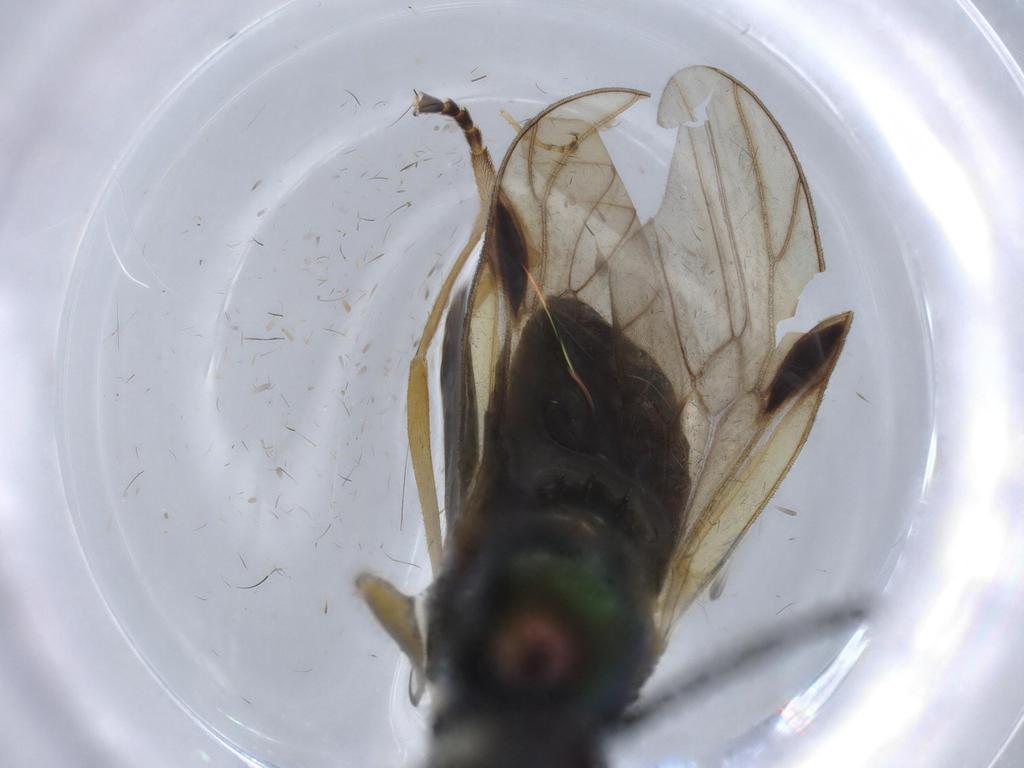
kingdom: Animalia
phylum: Arthropoda
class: Insecta
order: Diptera
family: Stratiomyidae
